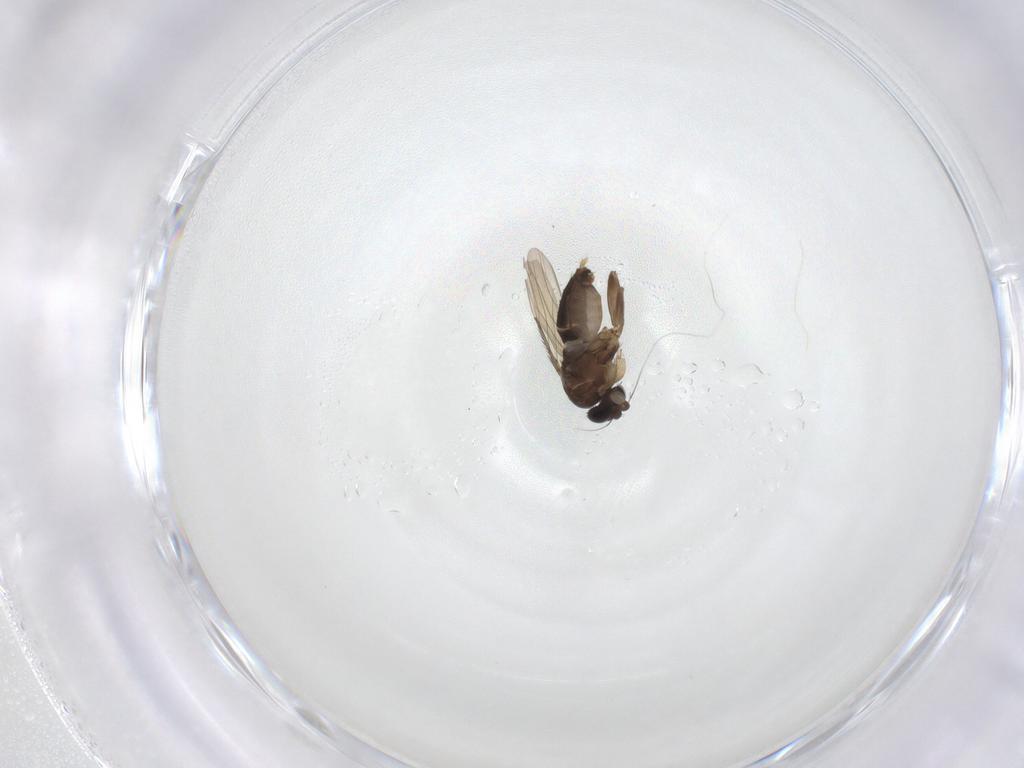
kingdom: Animalia
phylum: Arthropoda
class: Insecta
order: Diptera
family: Phoridae
